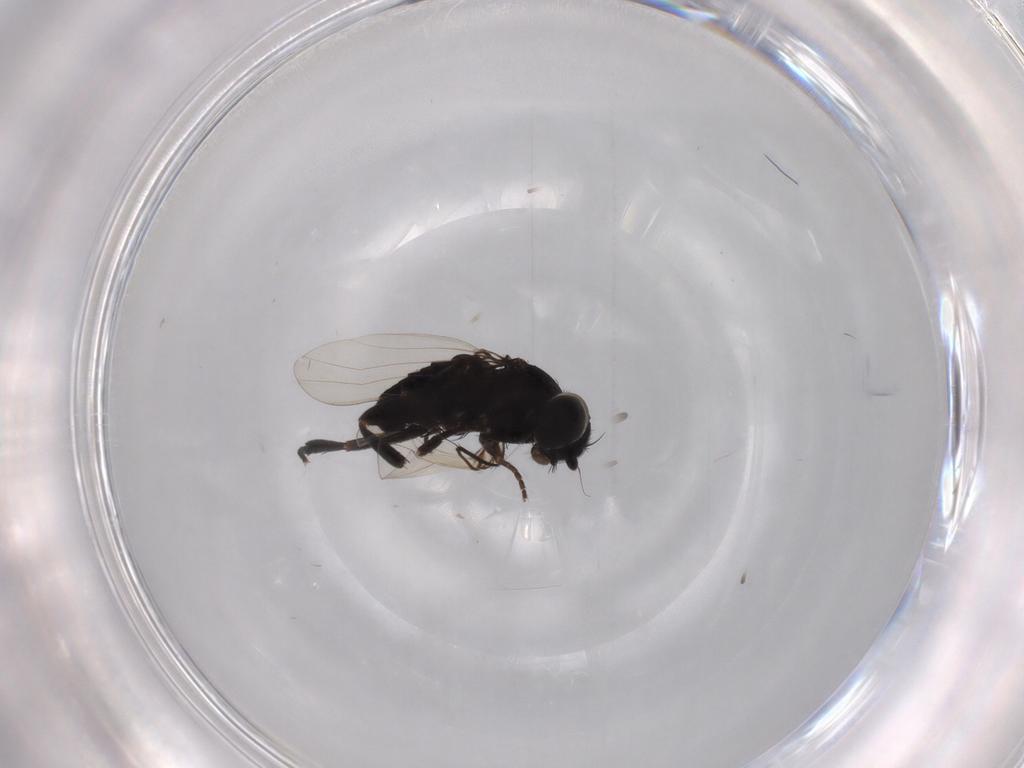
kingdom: Animalia
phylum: Arthropoda
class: Insecta
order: Diptera
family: Phoridae
